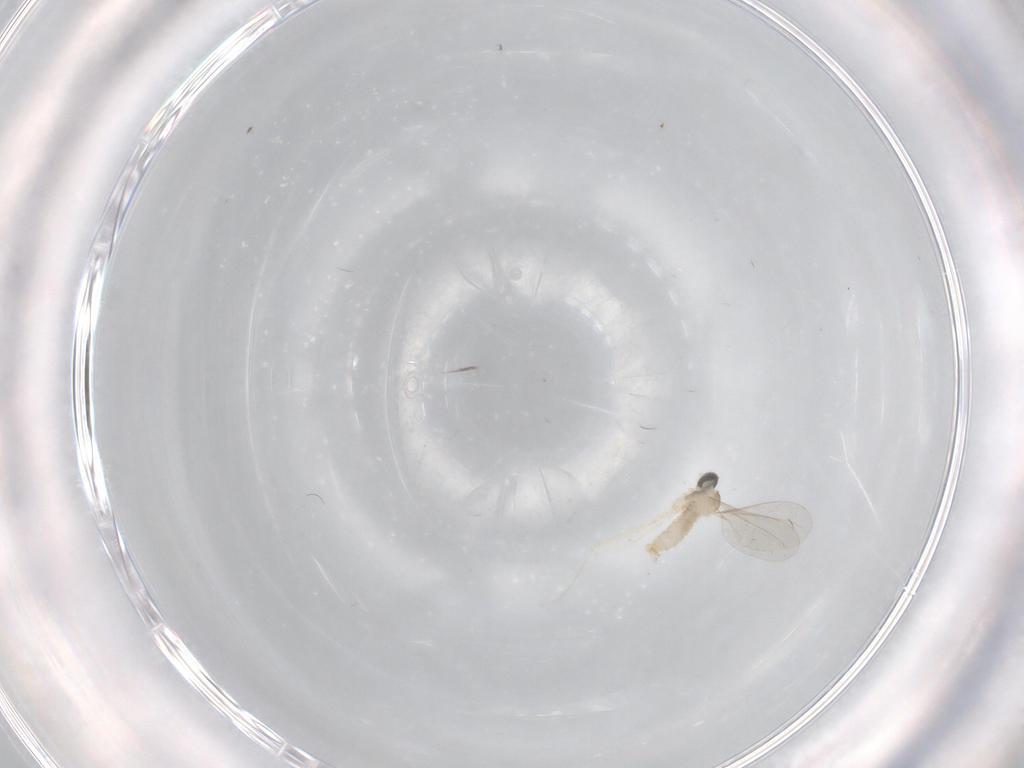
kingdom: Animalia
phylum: Arthropoda
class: Insecta
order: Diptera
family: Cecidomyiidae
